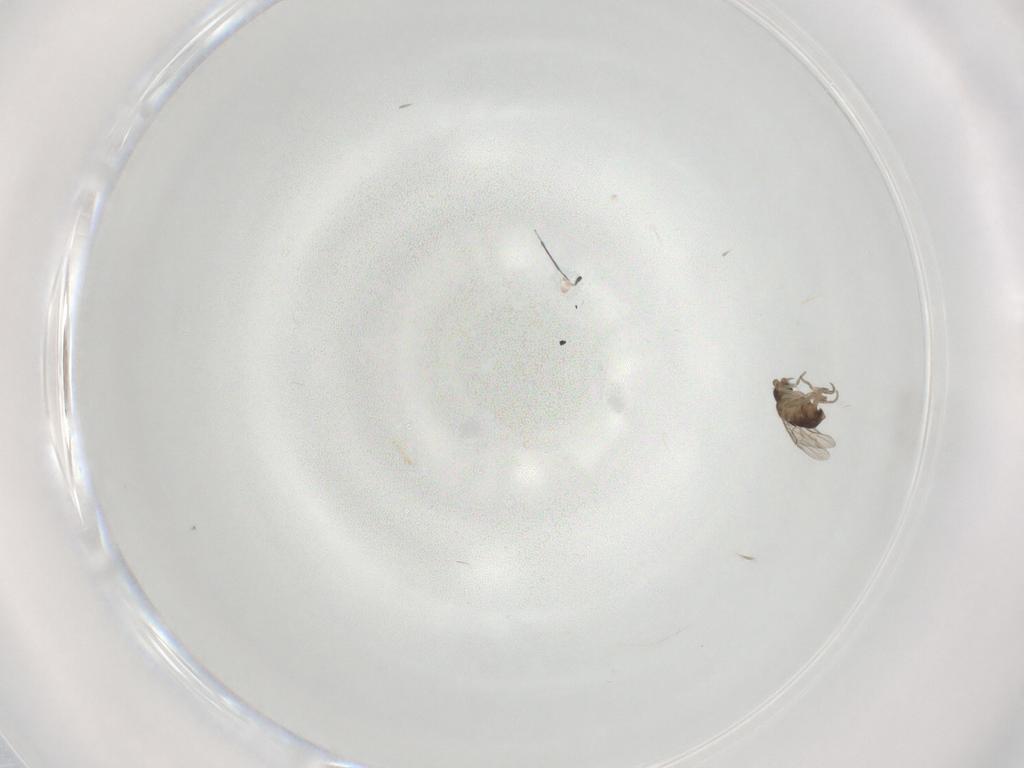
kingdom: Animalia
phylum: Arthropoda
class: Insecta
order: Diptera
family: Phoridae
